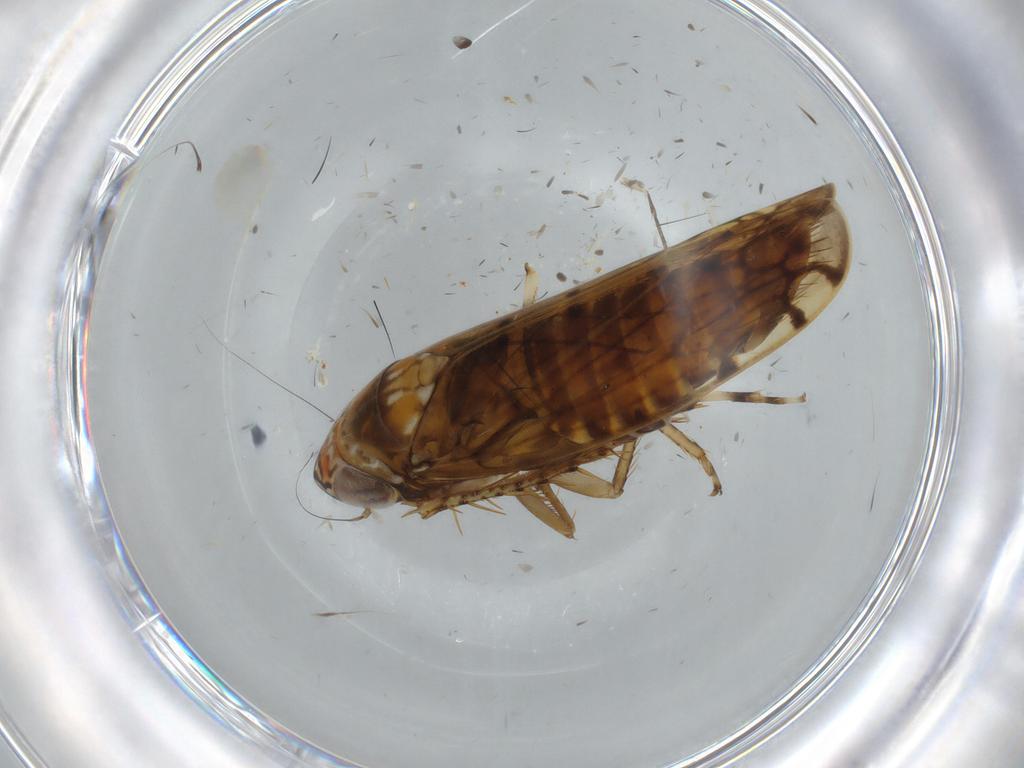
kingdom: Animalia
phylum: Arthropoda
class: Insecta
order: Hemiptera
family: Cicadellidae
